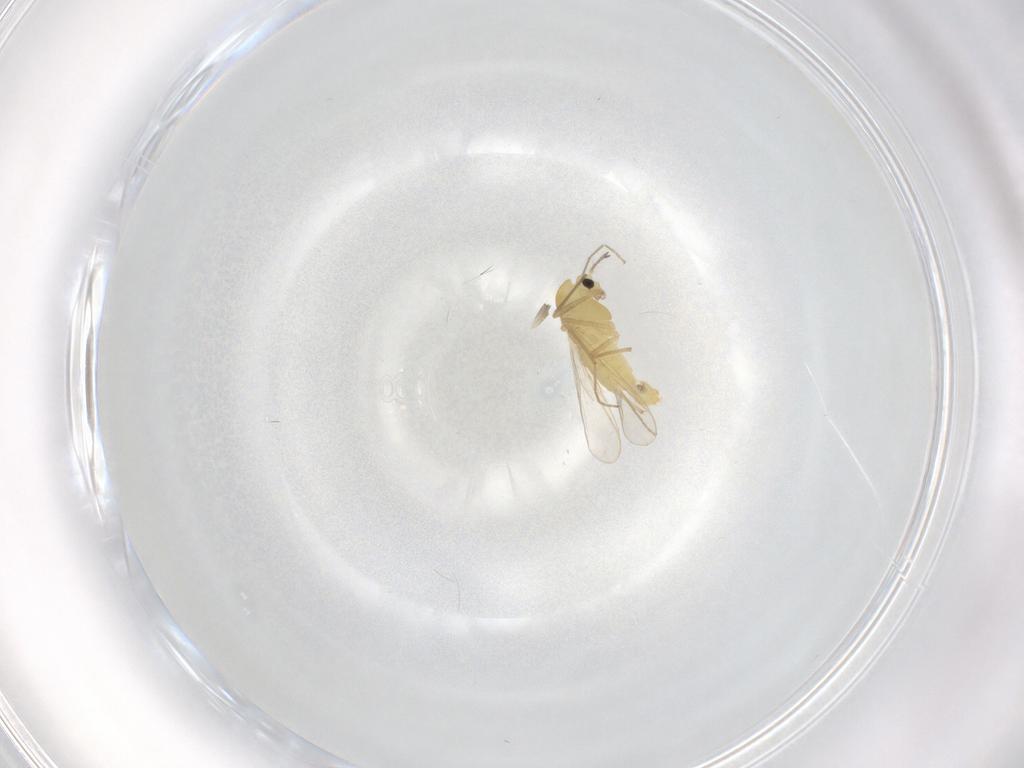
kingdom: Animalia
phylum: Arthropoda
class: Insecta
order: Diptera
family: Chironomidae
